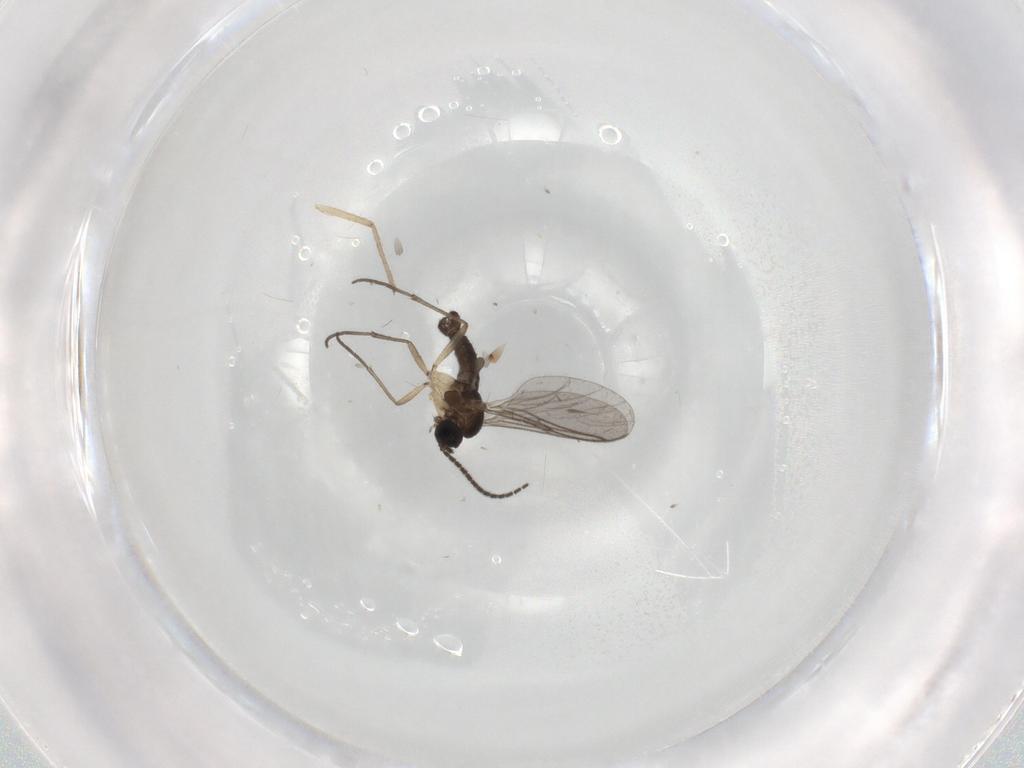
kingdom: Animalia
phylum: Arthropoda
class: Insecta
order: Diptera
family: Sciaridae
